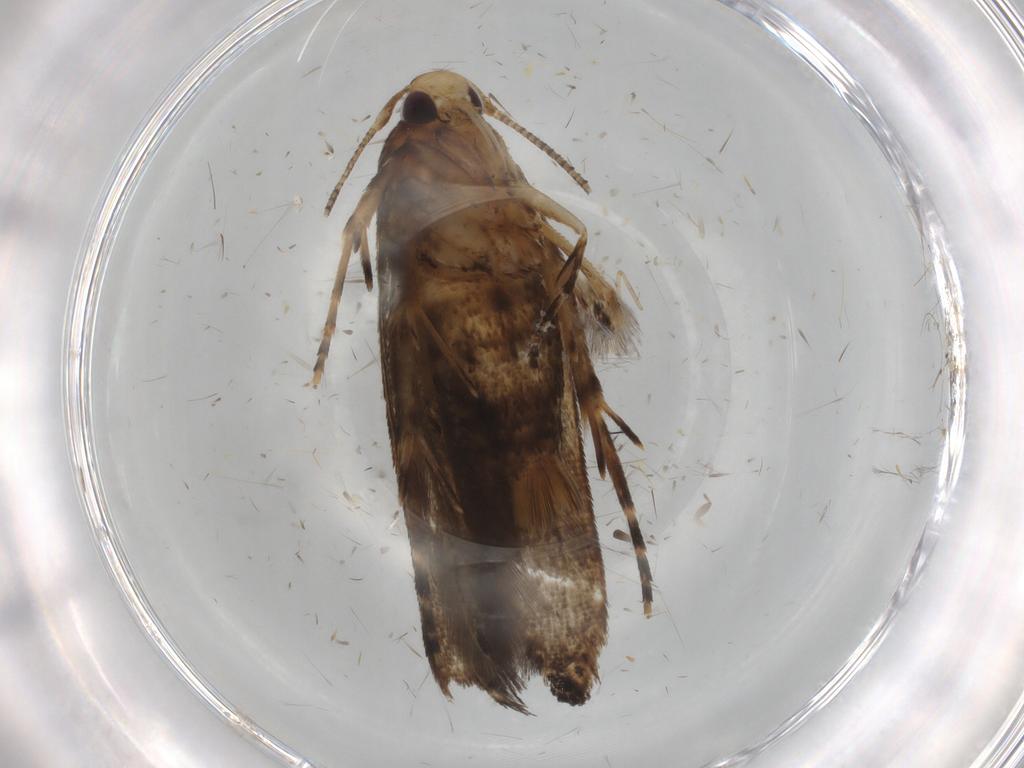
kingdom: Animalia
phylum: Arthropoda
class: Insecta
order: Lepidoptera
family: Cosmopterigidae
